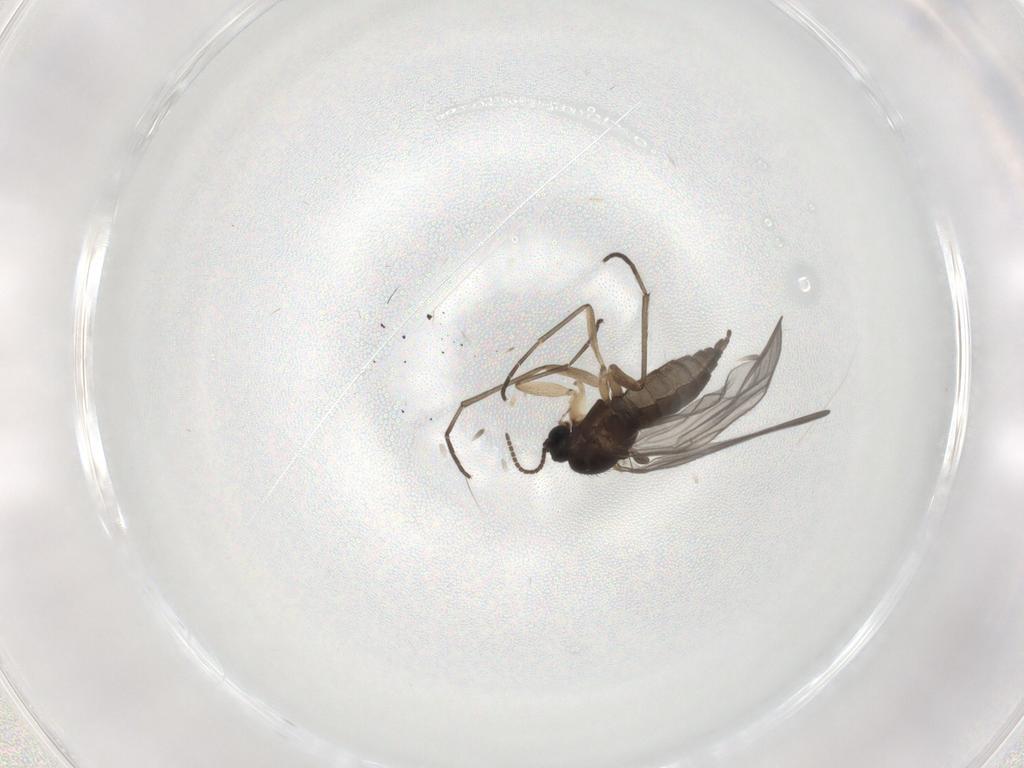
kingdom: Animalia
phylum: Arthropoda
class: Insecta
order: Diptera
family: Sciaridae
